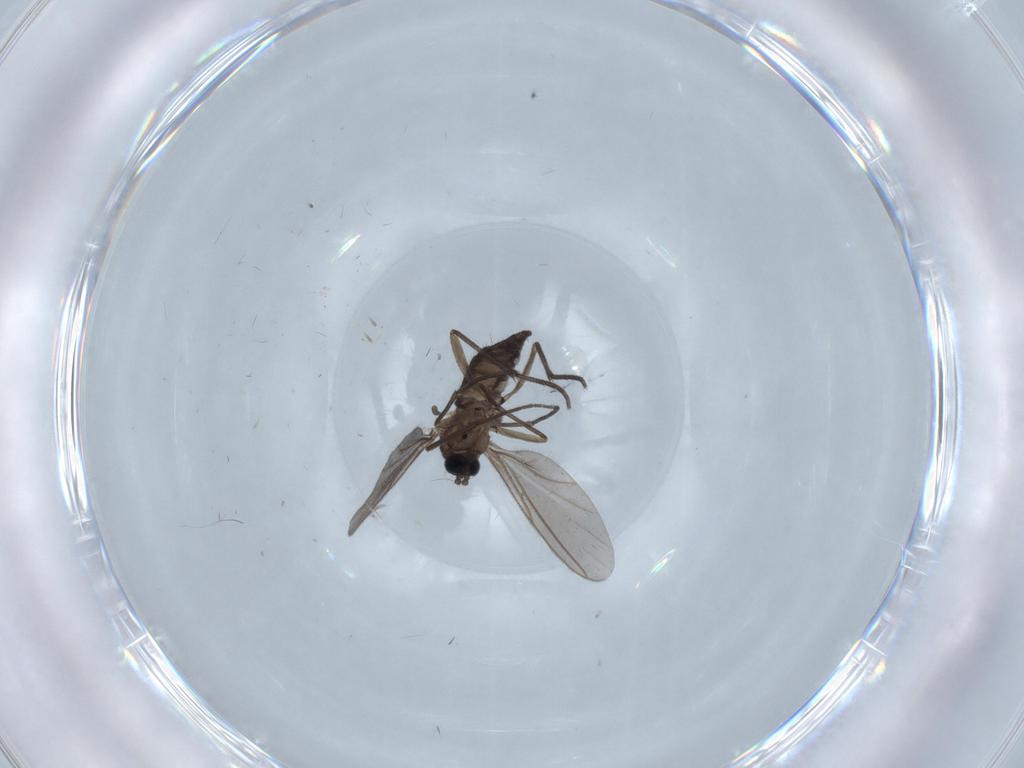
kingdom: Animalia
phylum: Arthropoda
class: Insecta
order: Diptera
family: Sciaridae
